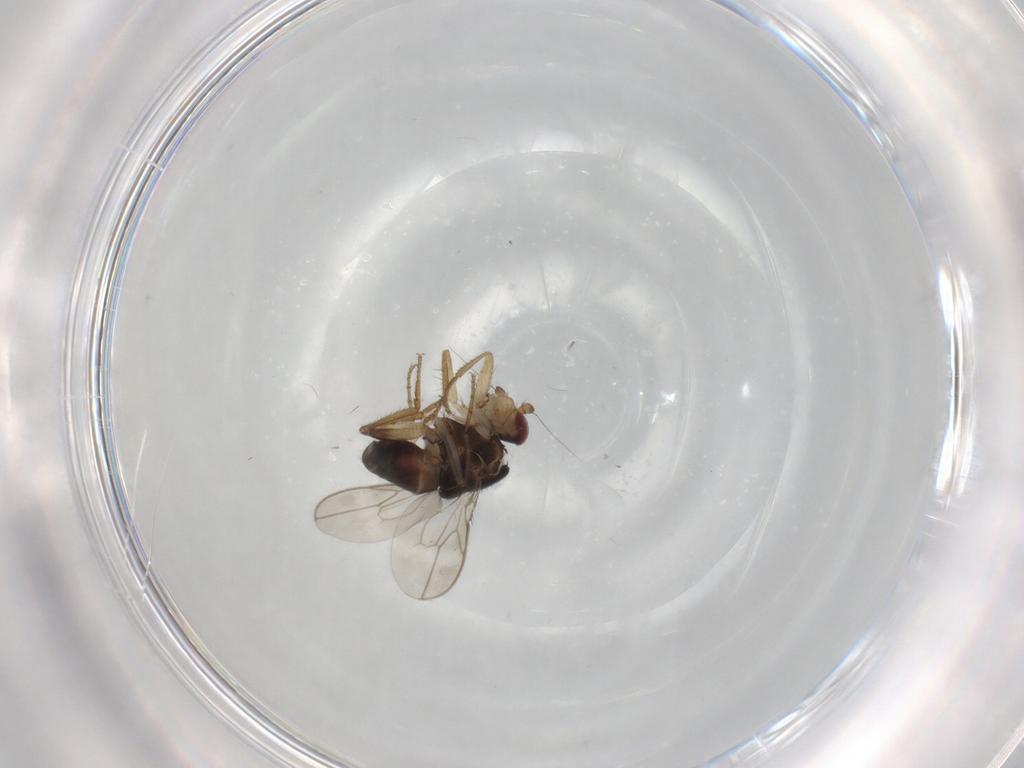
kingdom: Animalia
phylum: Arthropoda
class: Insecta
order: Diptera
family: Sphaeroceridae
